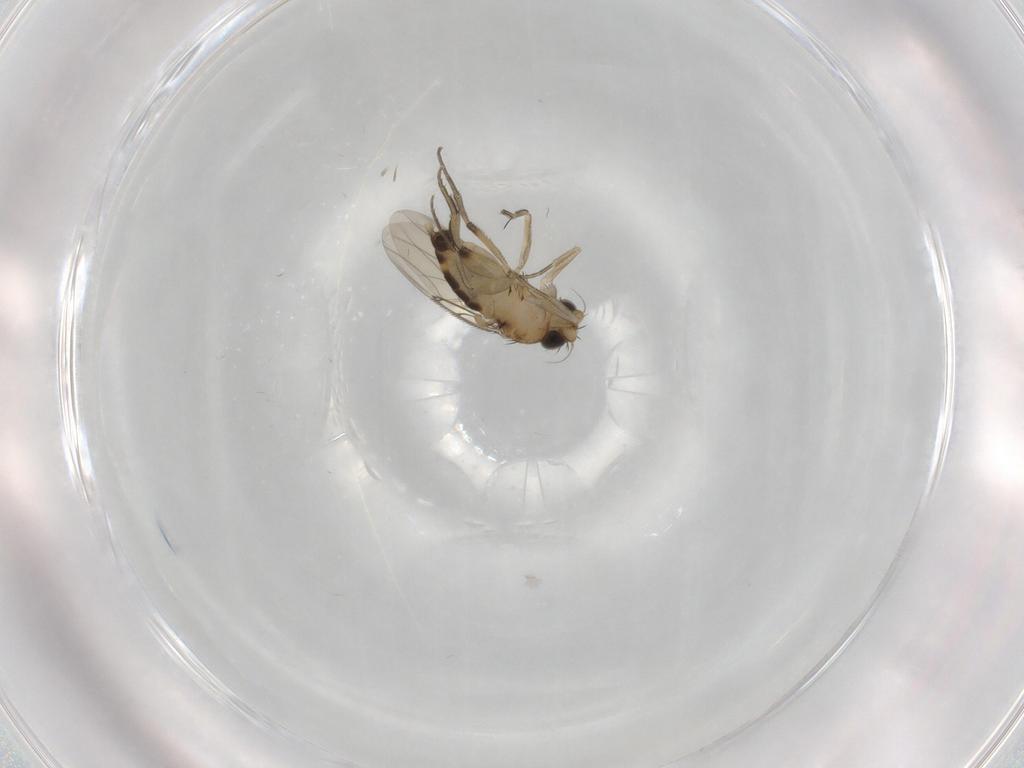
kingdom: Animalia
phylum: Arthropoda
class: Insecta
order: Diptera
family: Phoridae
